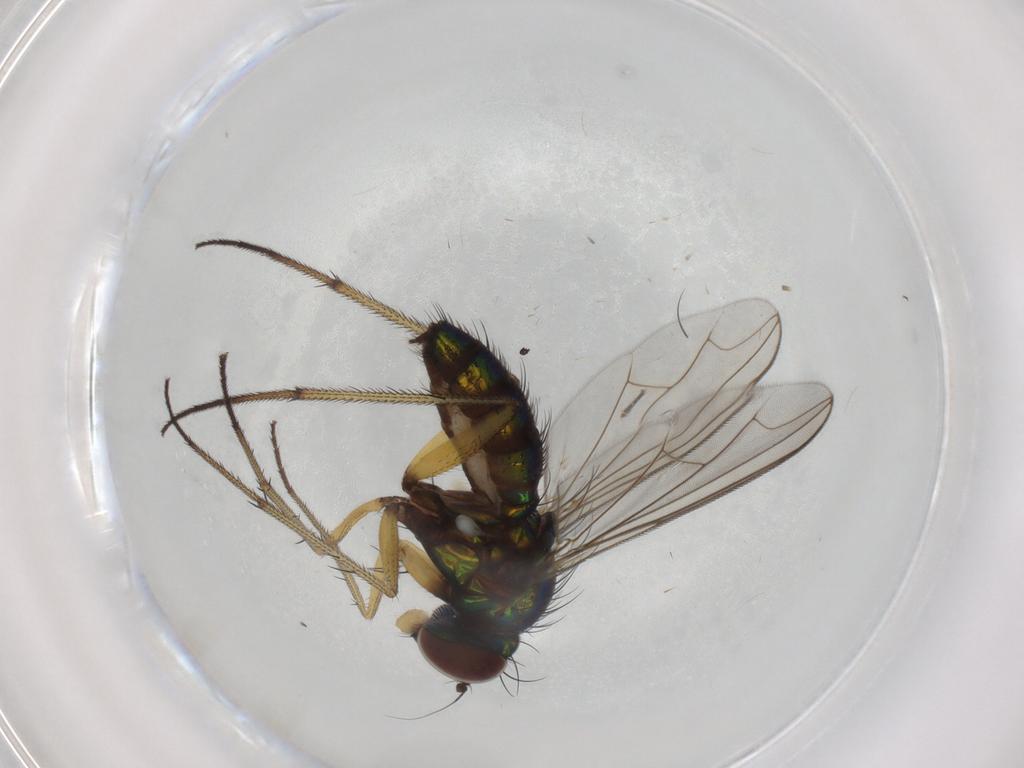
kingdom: Animalia
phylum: Arthropoda
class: Insecta
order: Diptera
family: Dolichopodidae
